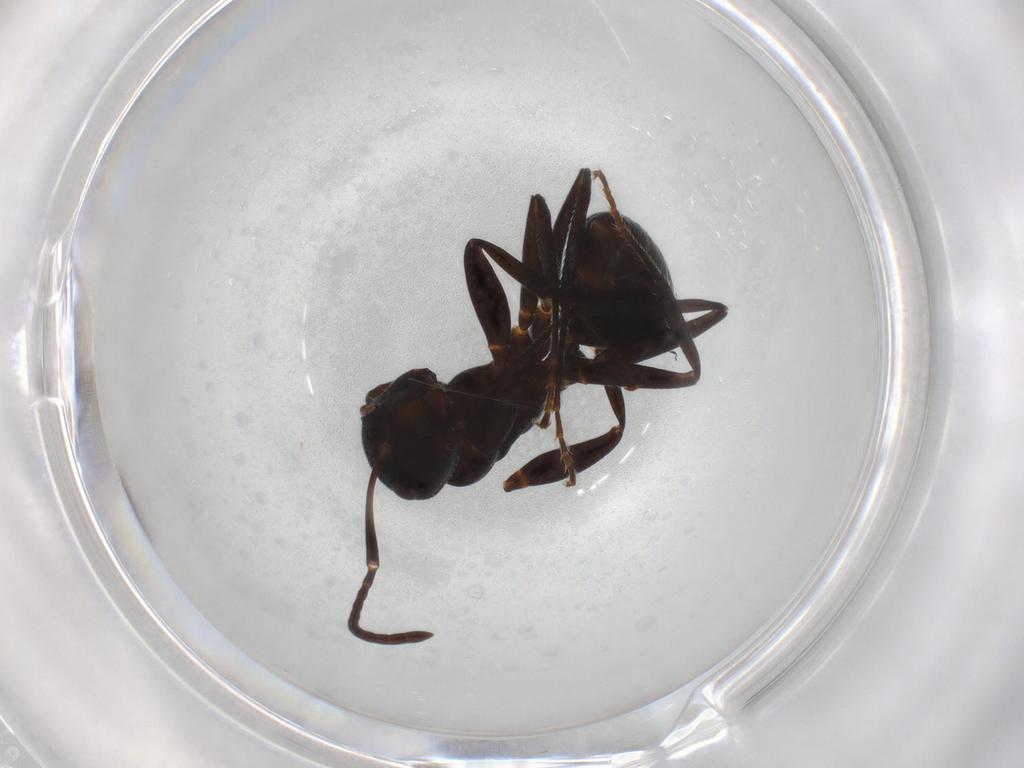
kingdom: Animalia
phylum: Arthropoda
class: Insecta
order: Hymenoptera
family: Formicidae
